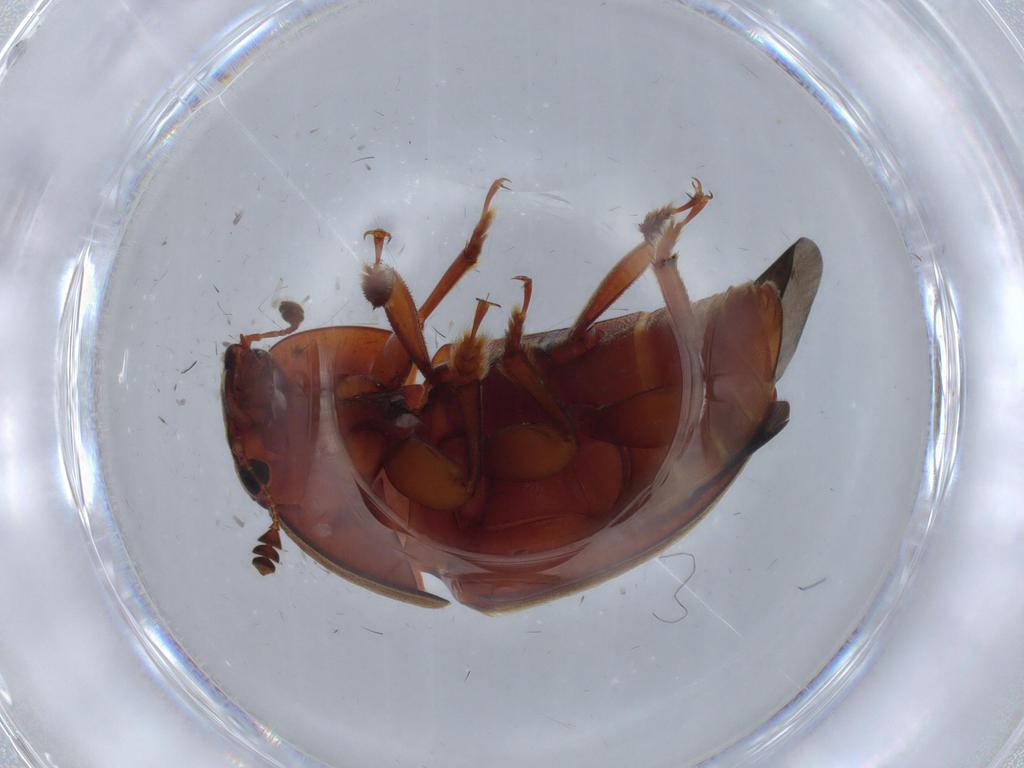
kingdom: Animalia
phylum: Arthropoda
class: Insecta
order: Coleoptera
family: Nitidulidae
